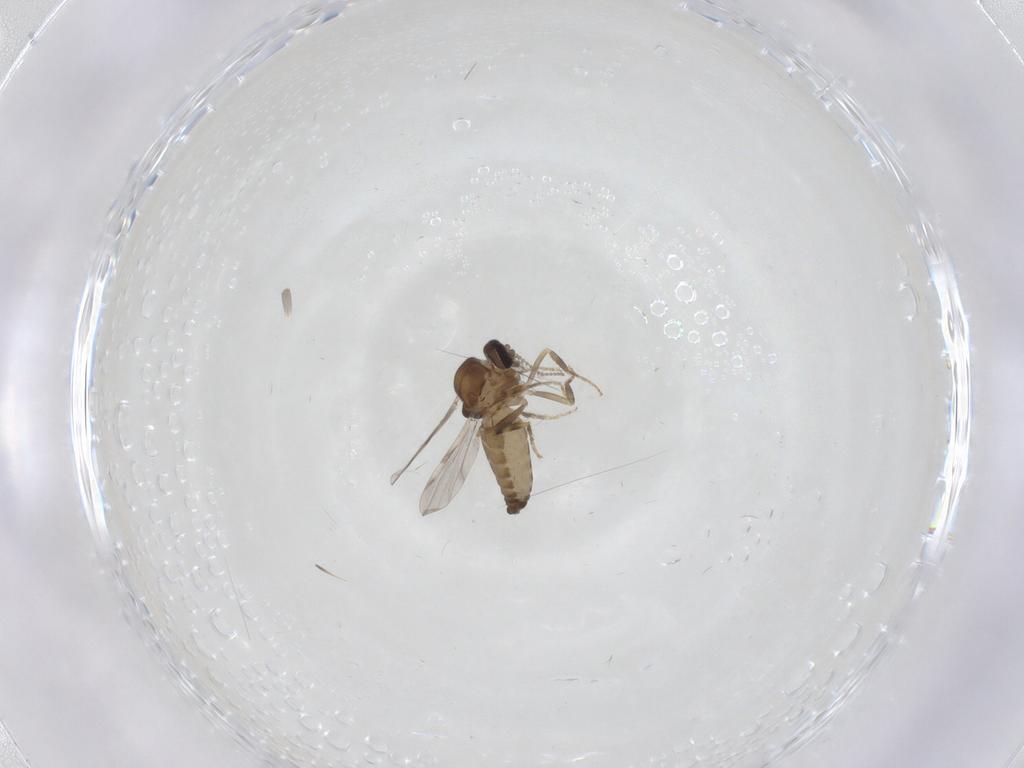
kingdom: Animalia
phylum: Arthropoda
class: Insecta
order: Diptera
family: Ceratopogonidae
